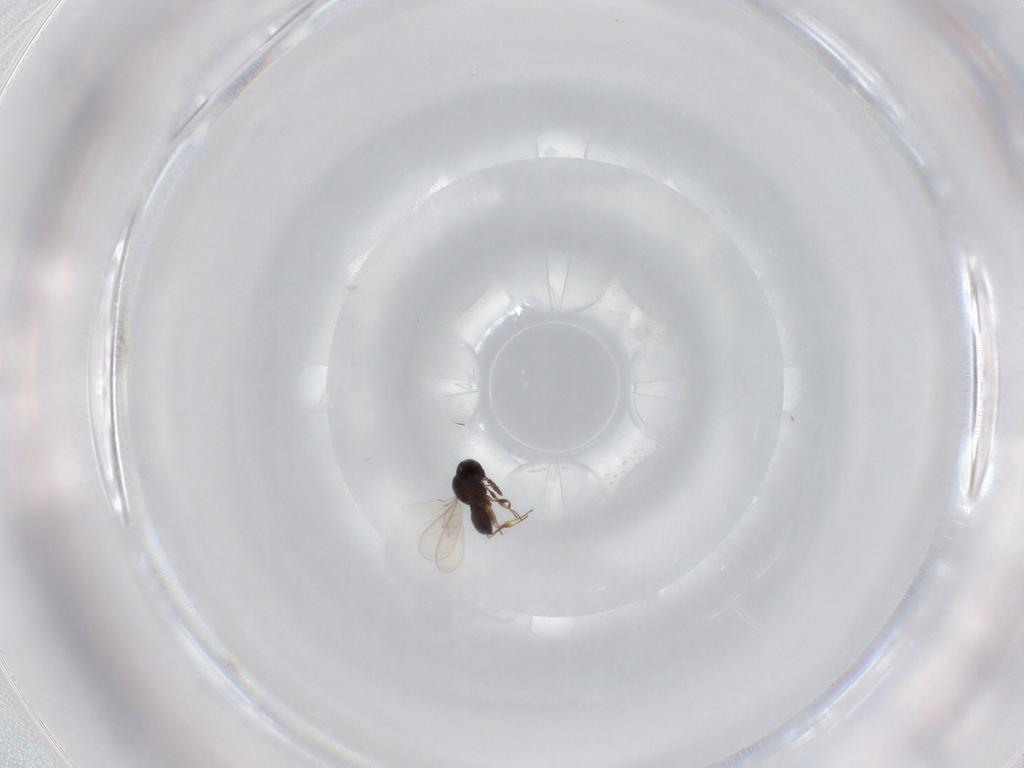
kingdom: Animalia
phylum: Arthropoda
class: Insecta
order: Hymenoptera
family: Scelionidae
